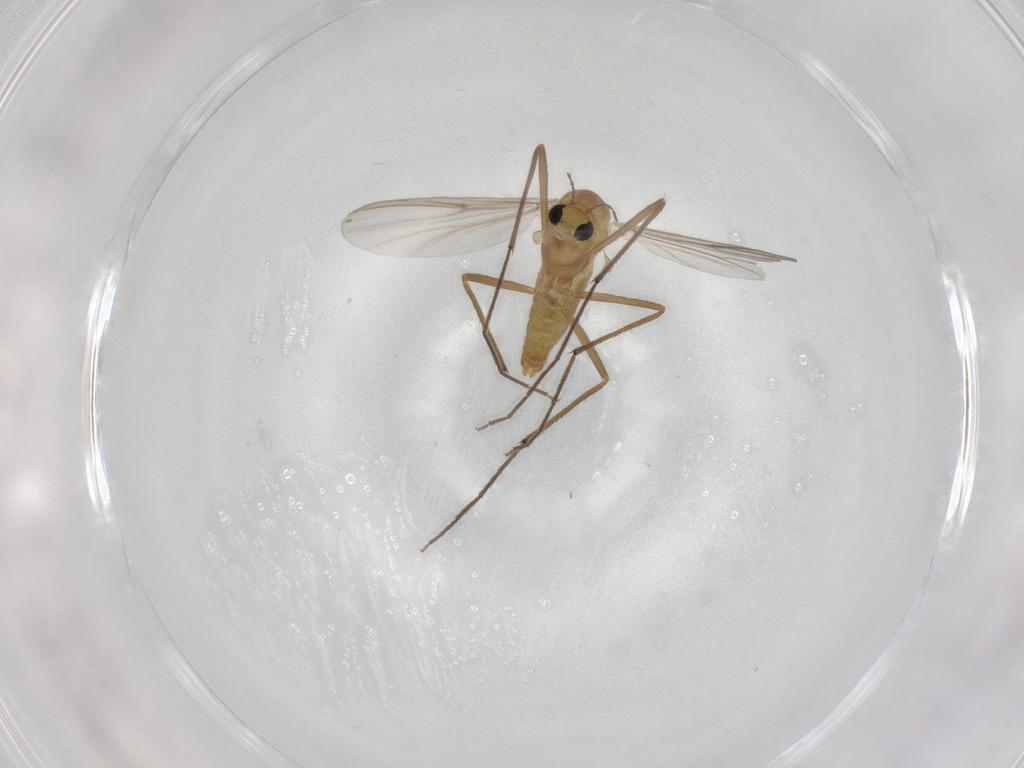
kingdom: Animalia
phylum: Arthropoda
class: Insecta
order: Diptera
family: Chironomidae
